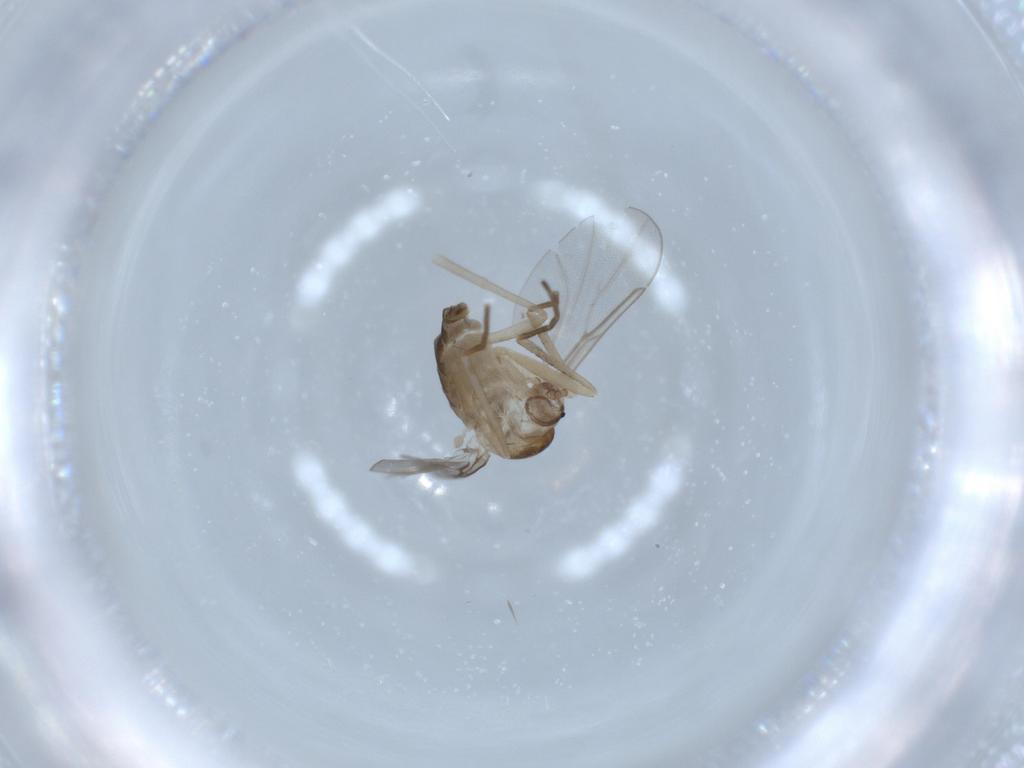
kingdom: Animalia
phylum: Arthropoda
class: Insecta
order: Diptera
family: Cecidomyiidae
